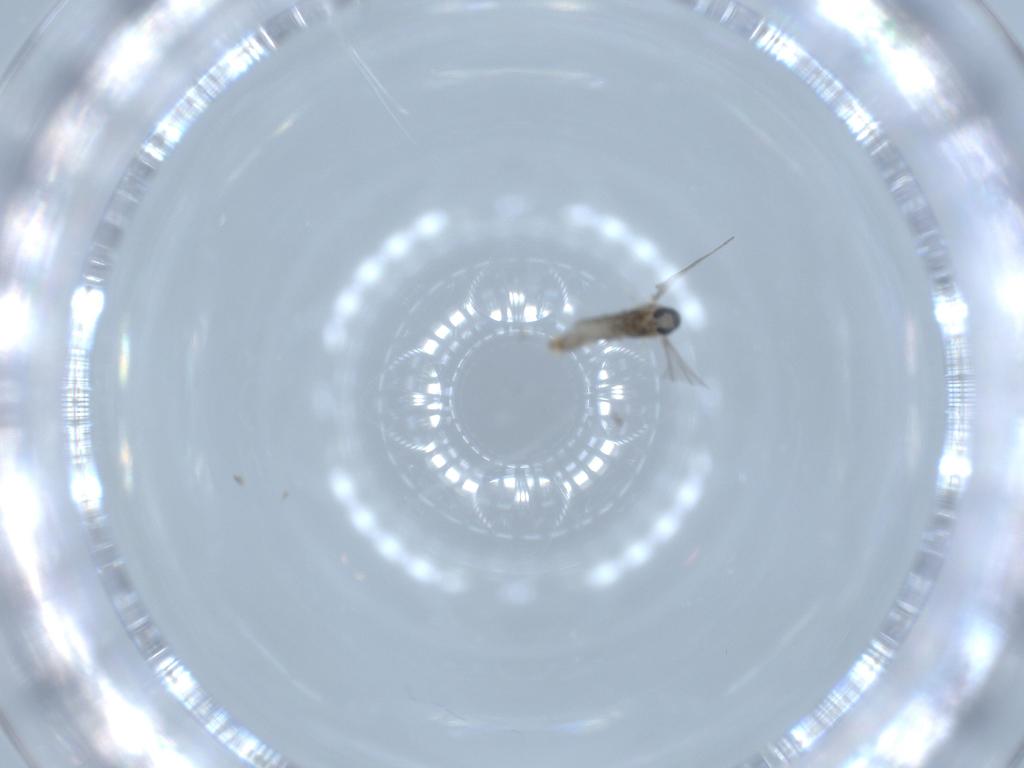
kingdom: Animalia
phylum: Arthropoda
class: Insecta
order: Diptera
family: Cecidomyiidae
